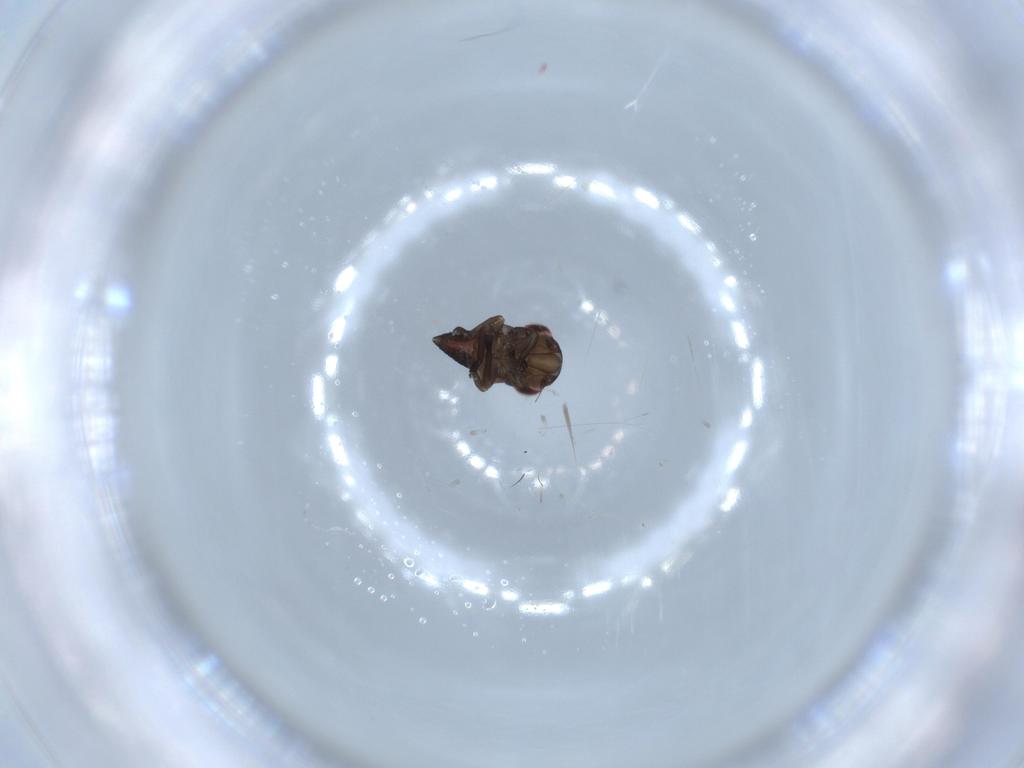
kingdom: Animalia
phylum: Arthropoda
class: Insecta
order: Hemiptera
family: Cicadellidae
